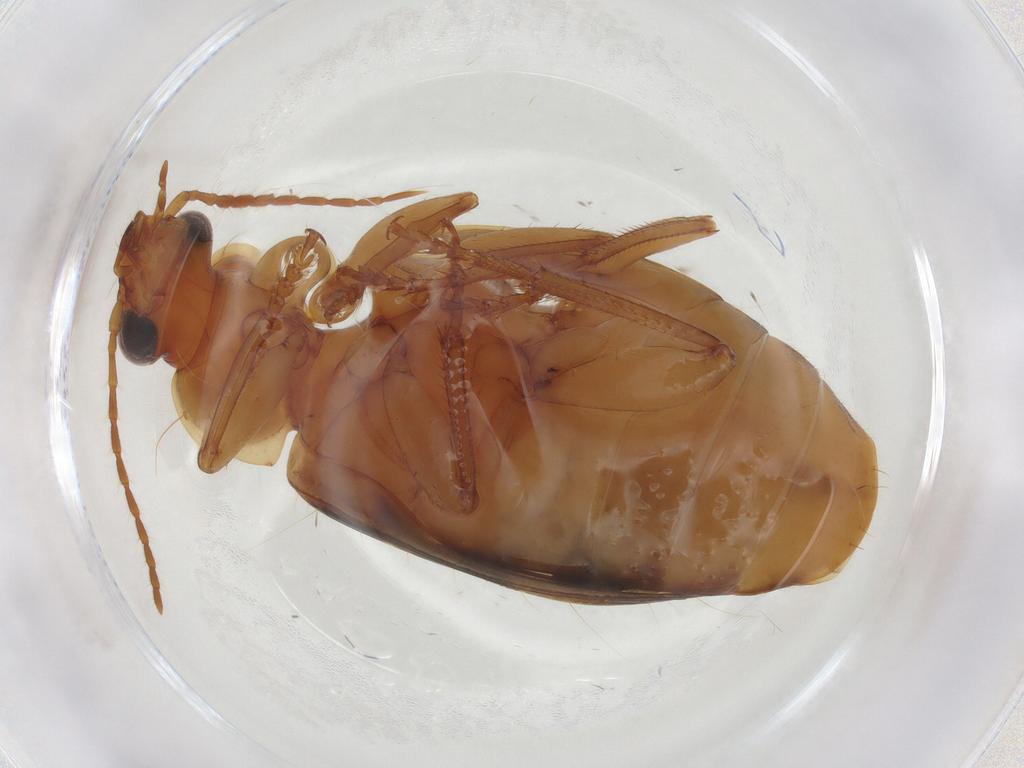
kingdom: Animalia
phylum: Arthropoda
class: Insecta
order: Coleoptera
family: Carabidae
